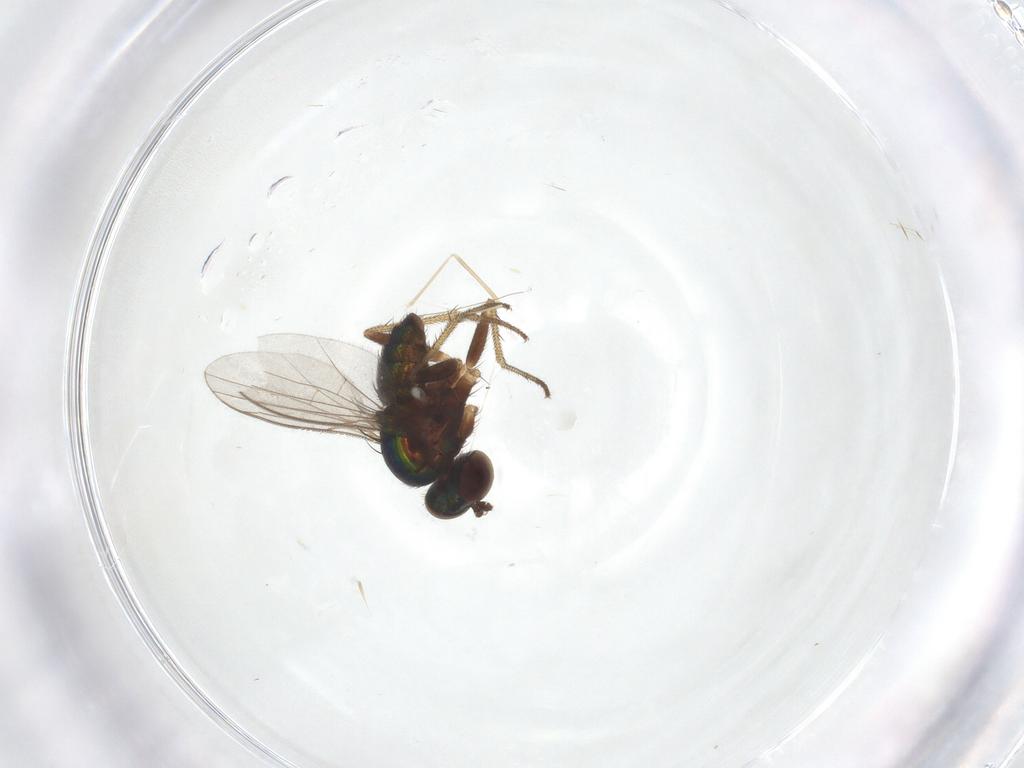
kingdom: Animalia
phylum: Arthropoda
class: Insecta
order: Diptera
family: Cecidomyiidae
